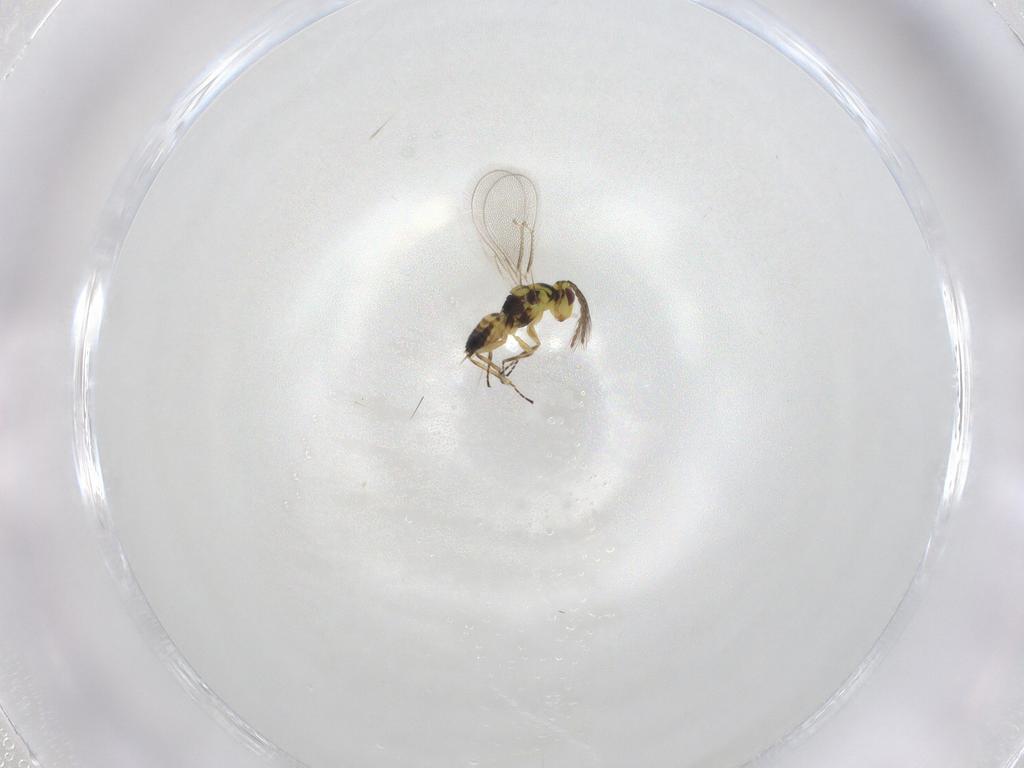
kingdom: Animalia
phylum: Arthropoda
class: Insecta
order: Hymenoptera
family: Eulophidae
